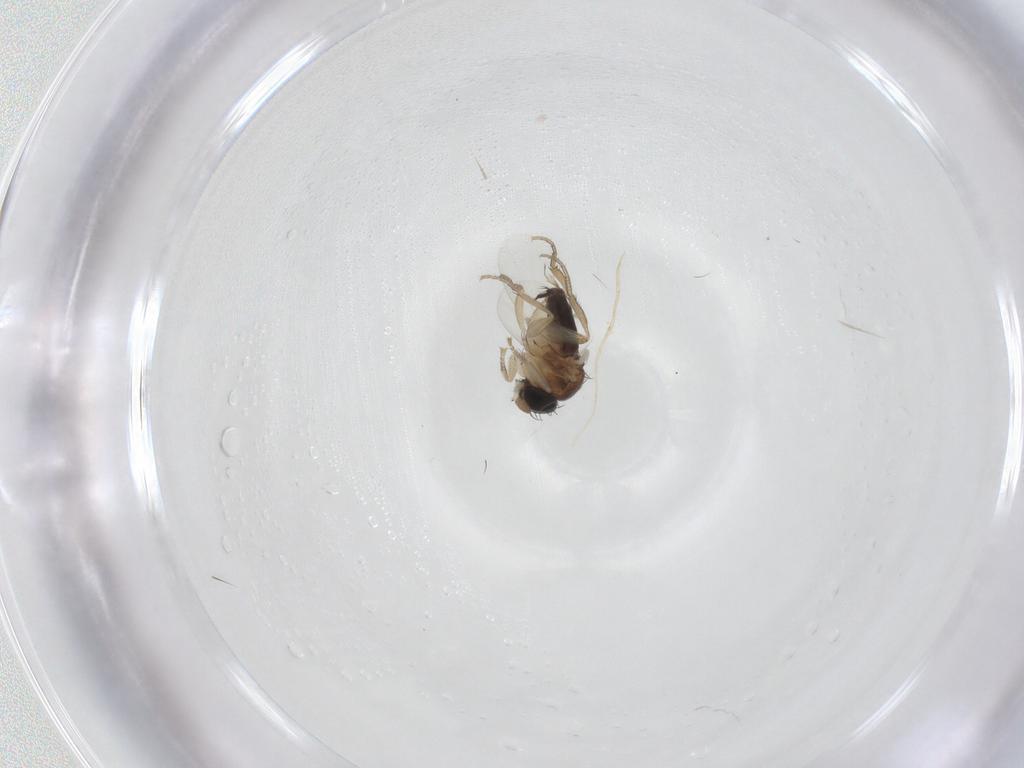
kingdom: Animalia
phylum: Arthropoda
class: Insecta
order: Diptera
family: Phoridae
